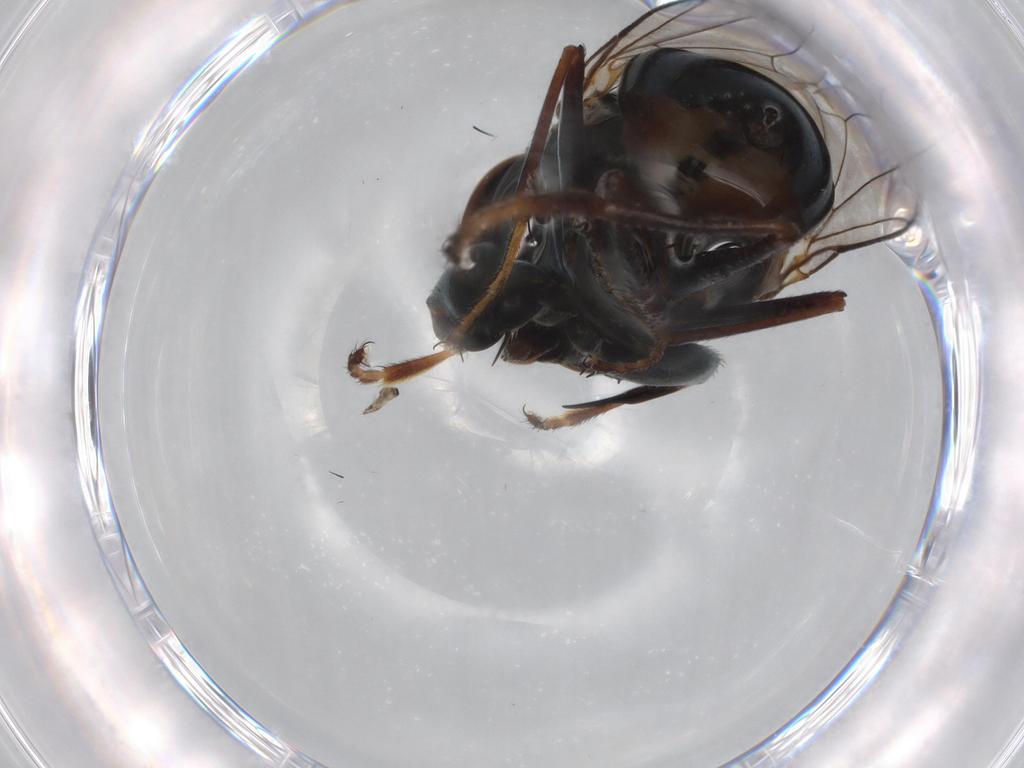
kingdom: Animalia
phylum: Arthropoda
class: Insecta
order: Diptera
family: Ephydridae
